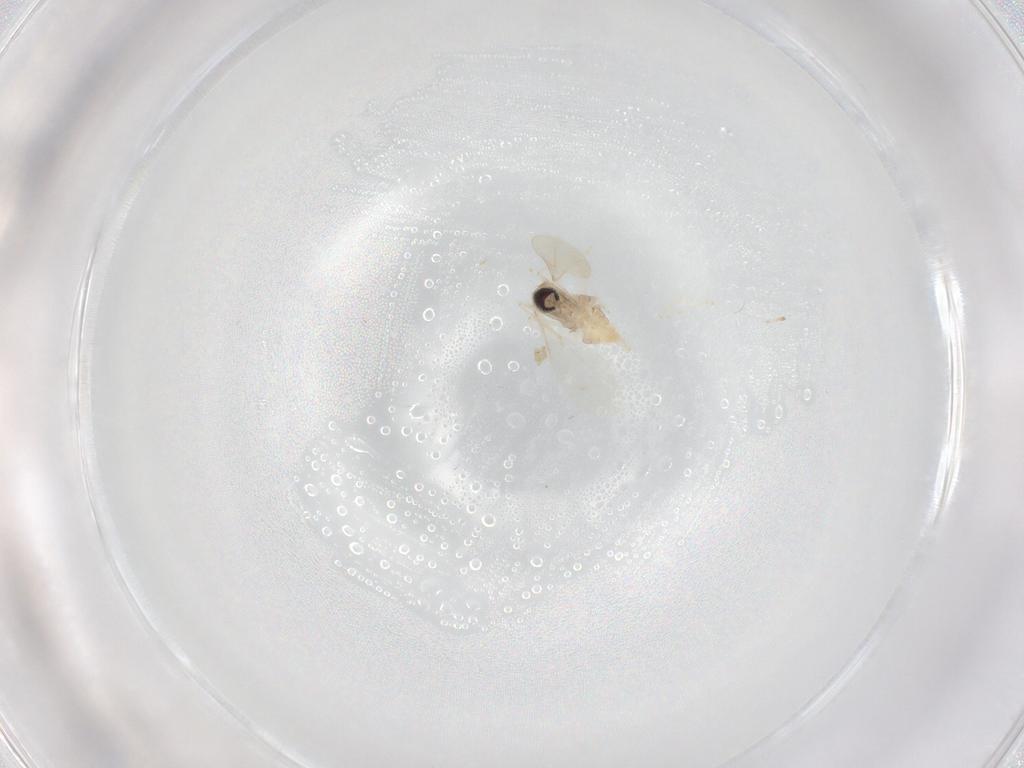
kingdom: Animalia
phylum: Arthropoda
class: Insecta
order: Diptera
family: Cecidomyiidae
